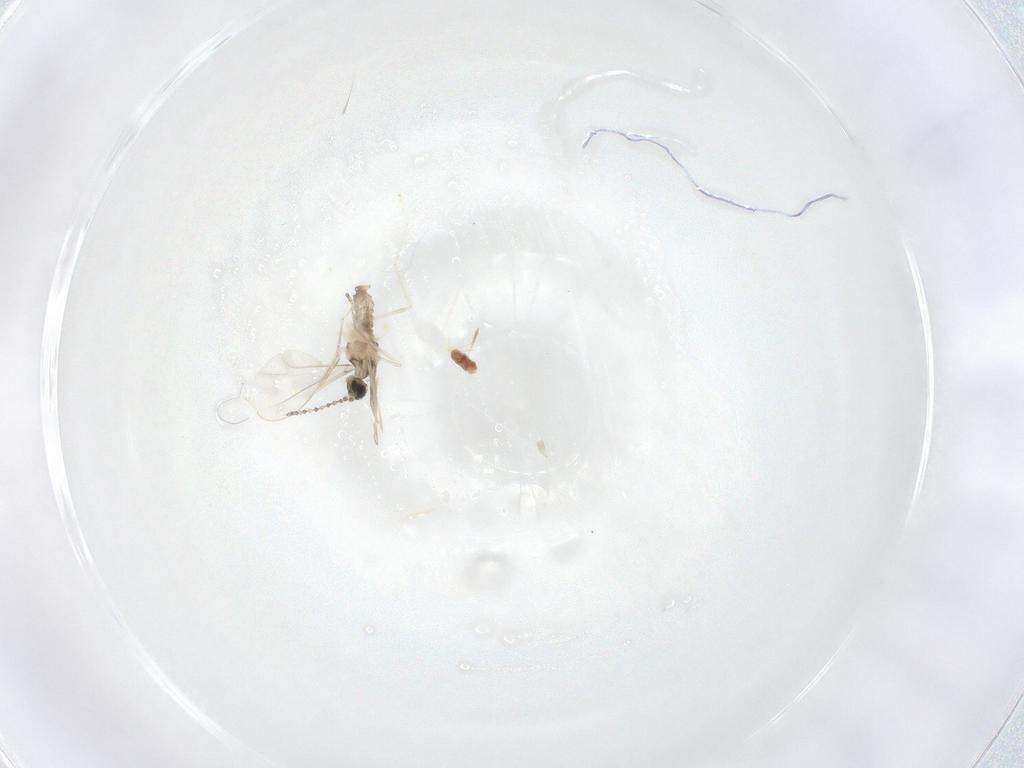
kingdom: Animalia
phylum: Arthropoda
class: Insecta
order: Diptera
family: Cecidomyiidae
